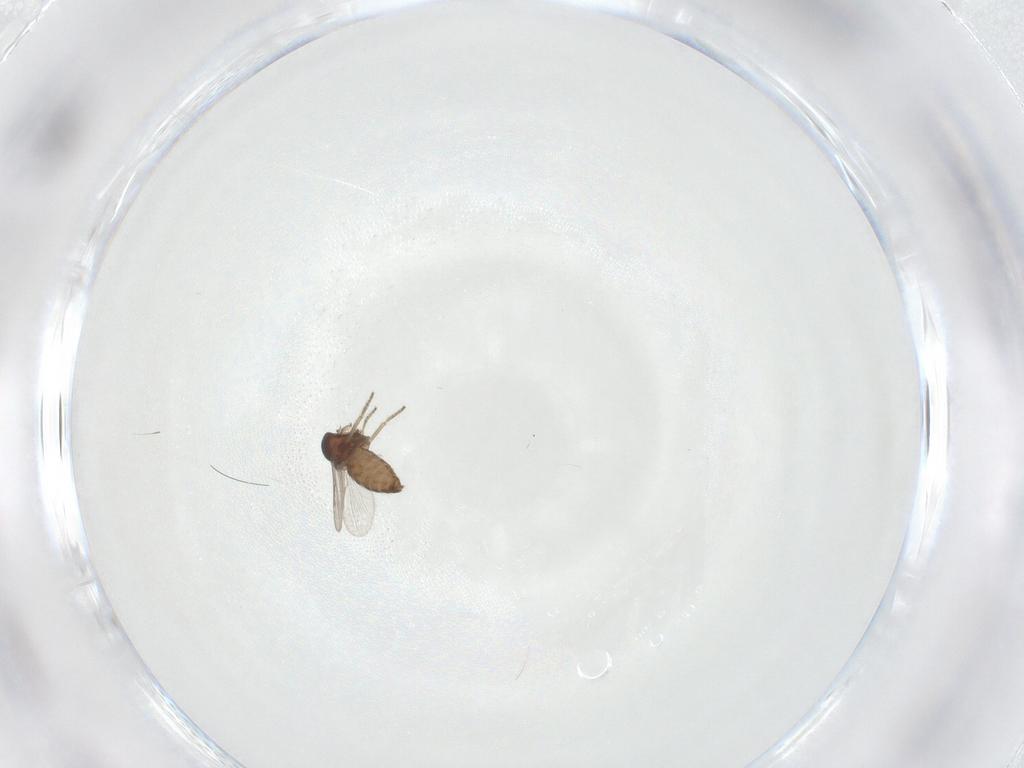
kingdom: Animalia
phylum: Arthropoda
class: Insecta
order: Diptera
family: Ceratopogonidae
